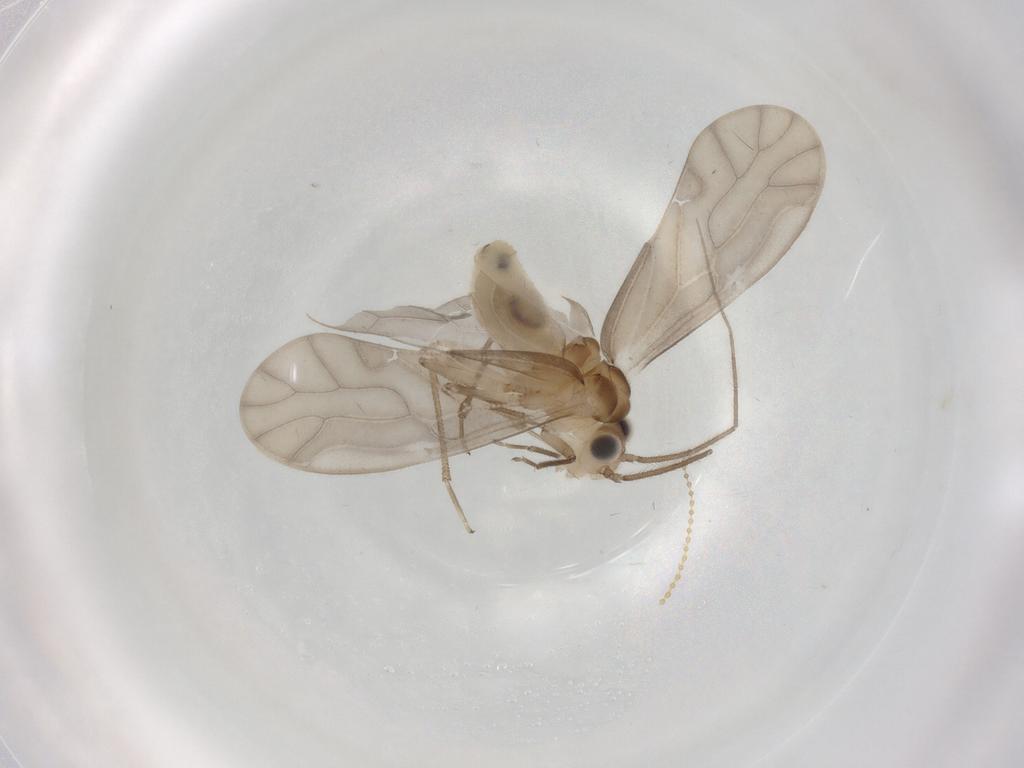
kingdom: Animalia
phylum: Arthropoda
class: Insecta
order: Psocodea
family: Caeciliusidae
